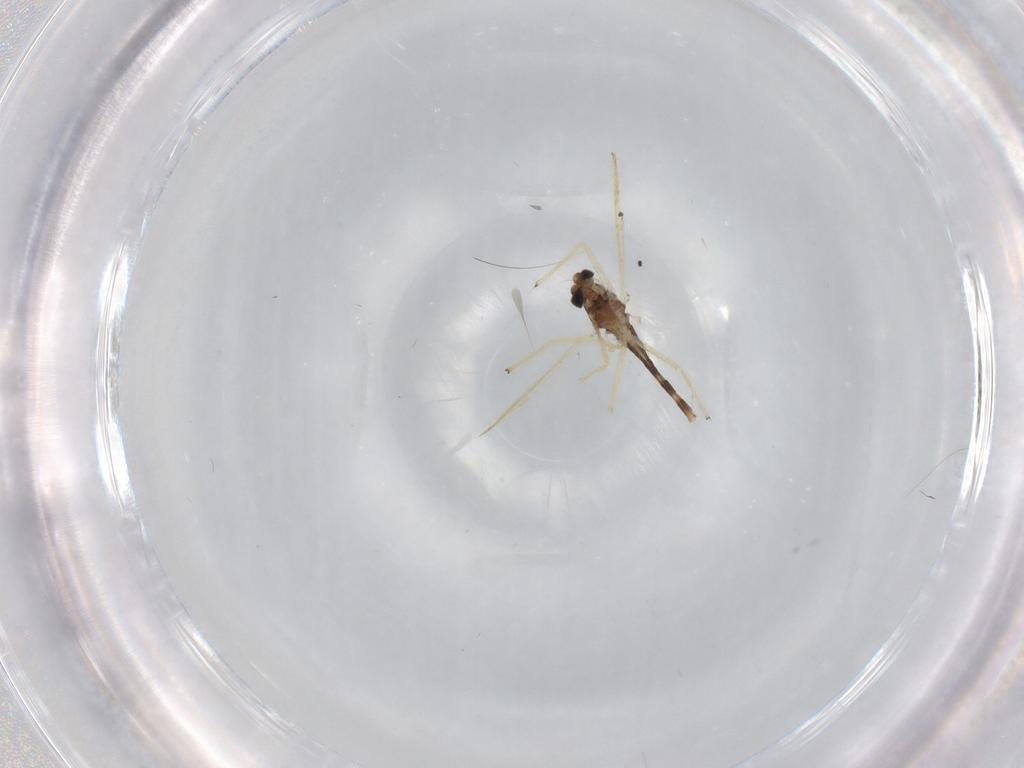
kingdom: Animalia
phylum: Arthropoda
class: Insecta
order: Diptera
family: Chironomidae
